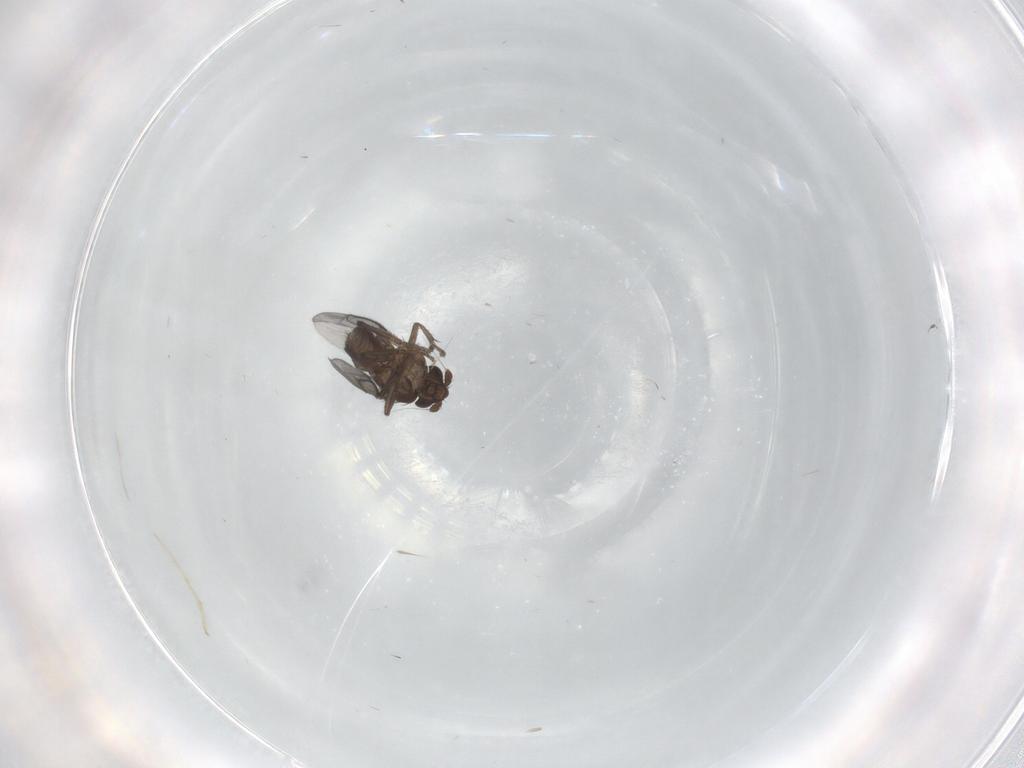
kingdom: Animalia
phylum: Arthropoda
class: Insecta
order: Diptera
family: Chironomidae
